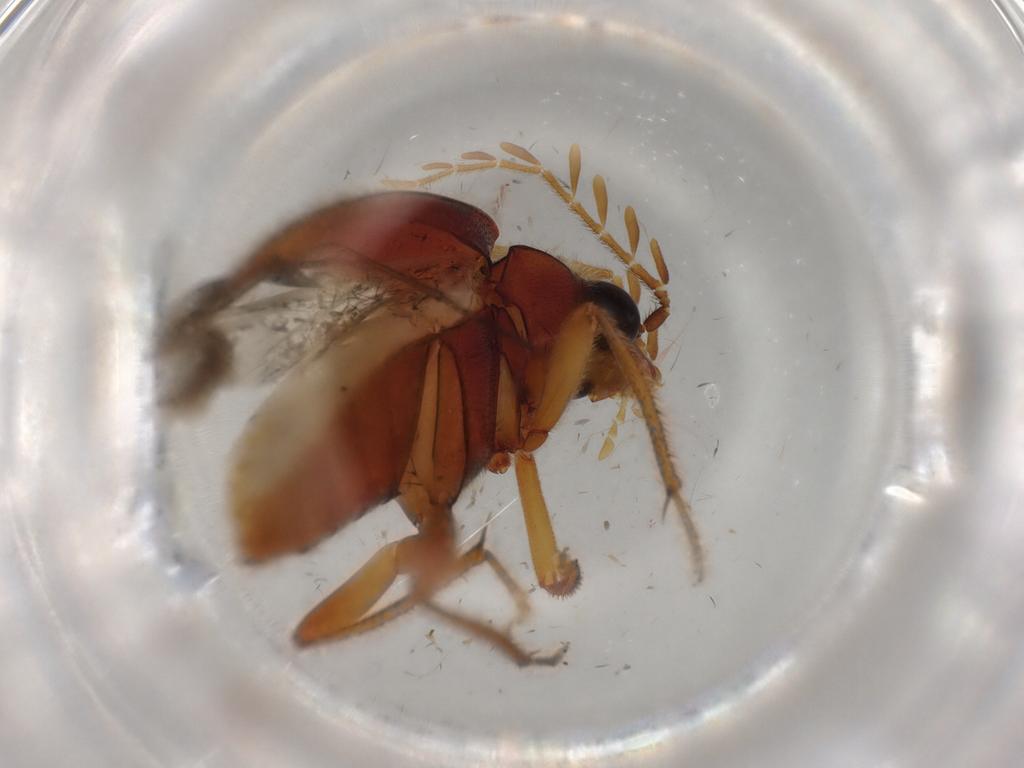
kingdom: Animalia
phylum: Arthropoda
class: Insecta
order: Coleoptera
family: Ptilodactylidae
